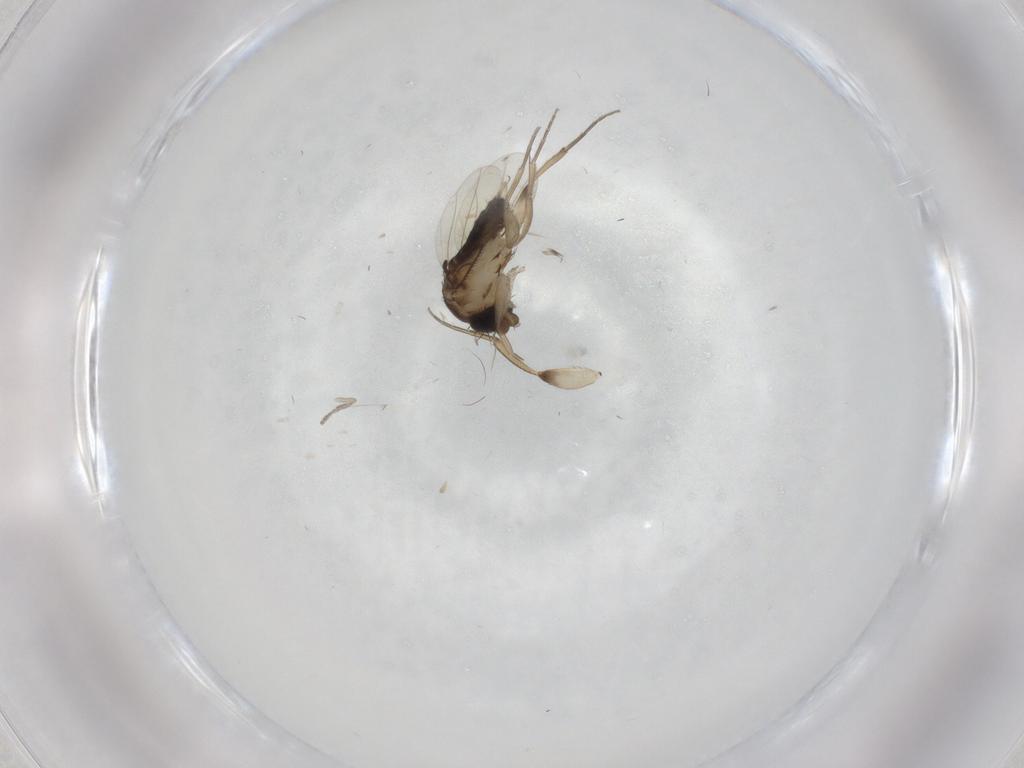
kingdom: Animalia
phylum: Arthropoda
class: Insecta
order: Diptera
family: Phoridae
